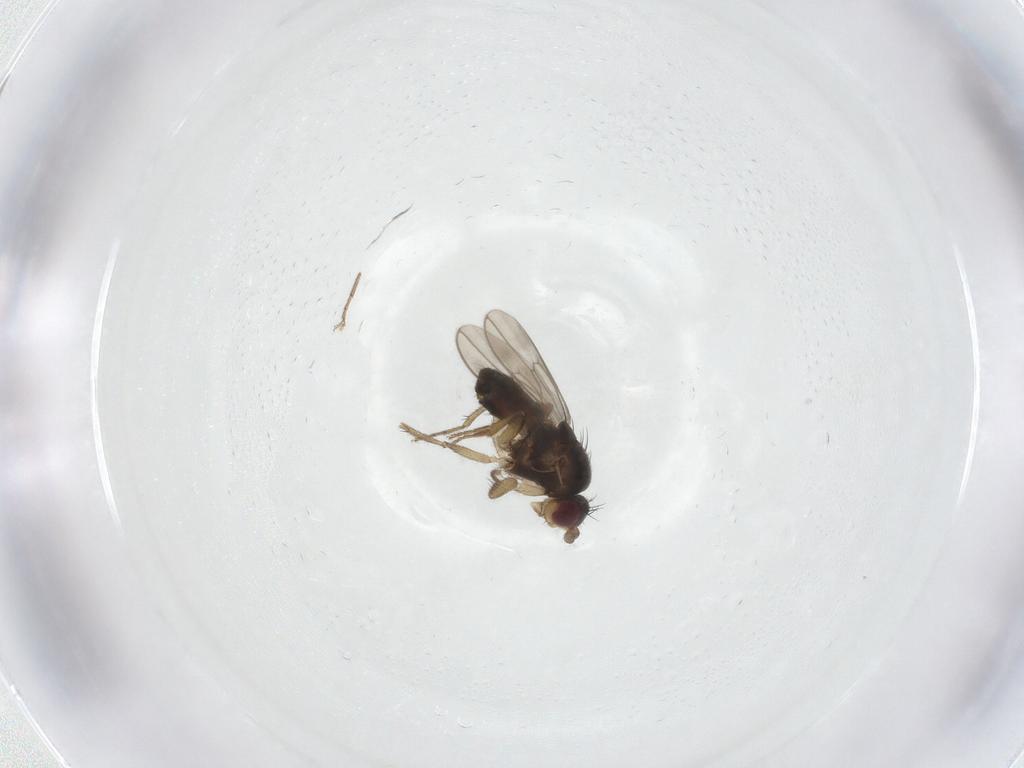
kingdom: Animalia
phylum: Arthropoda
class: Insecta
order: Diptera
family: Sphaeroceridae
